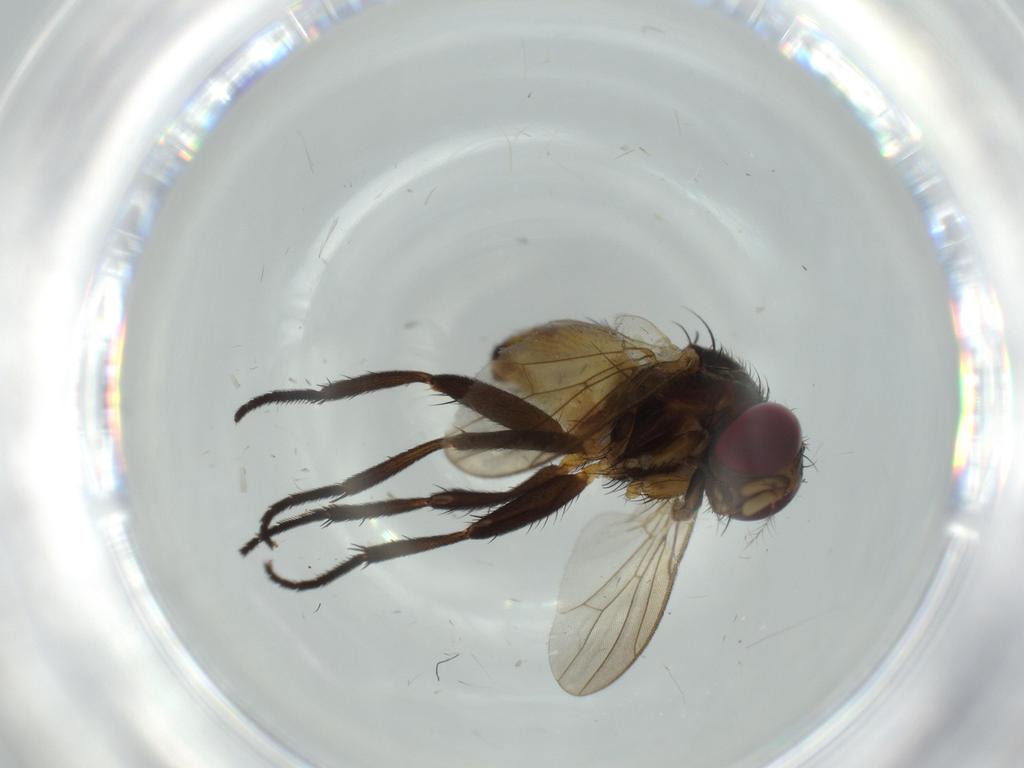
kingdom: Animalia
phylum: Arthropoda
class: Insecta
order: Diptera
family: Anthomyiidae
